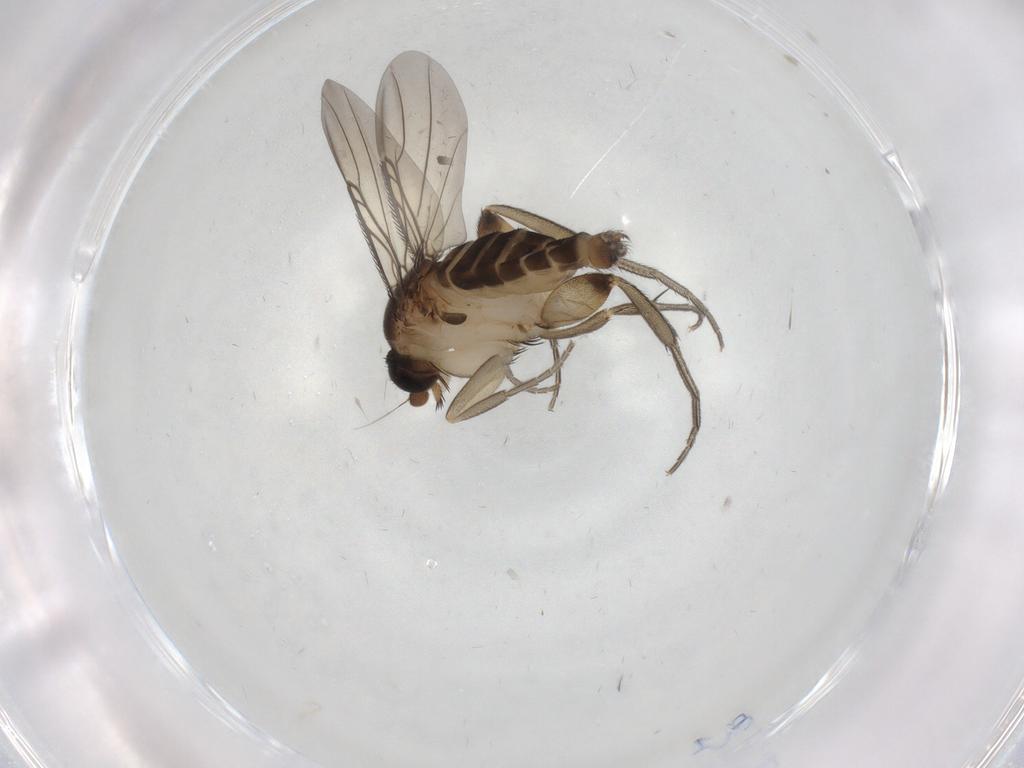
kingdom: Animalia
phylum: Arthropoda
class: Insecta
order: Diptera
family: Phoridae
